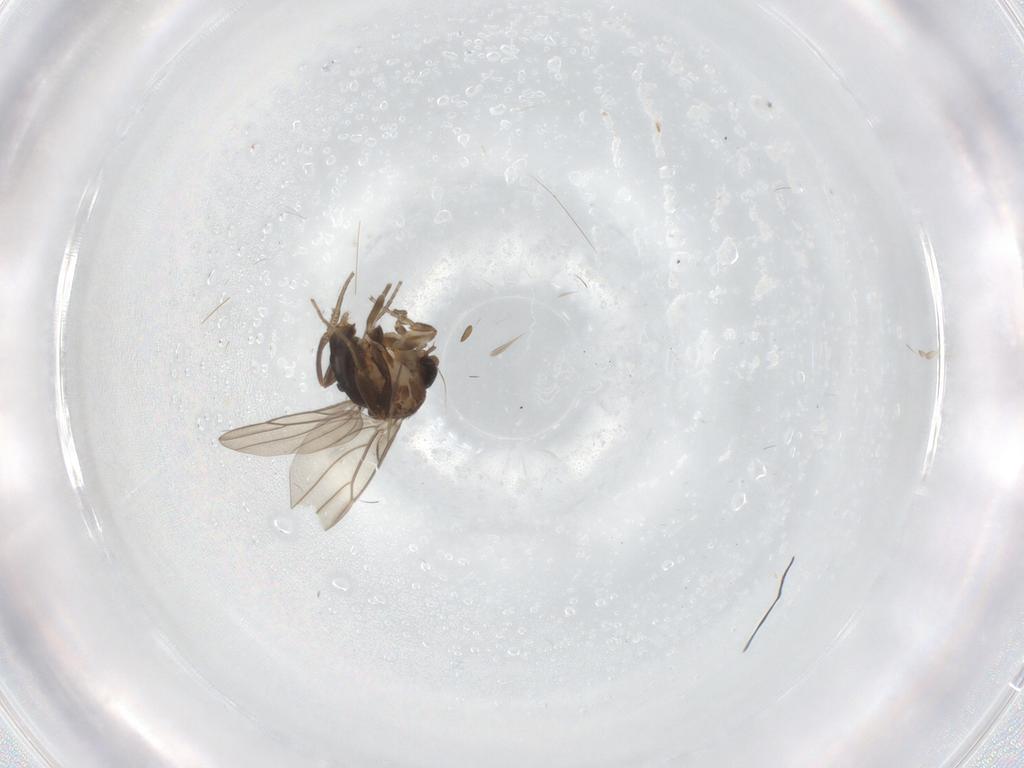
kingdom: Animalia
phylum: Arthropoda
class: Insecta
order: Diptera
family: Phoridae
